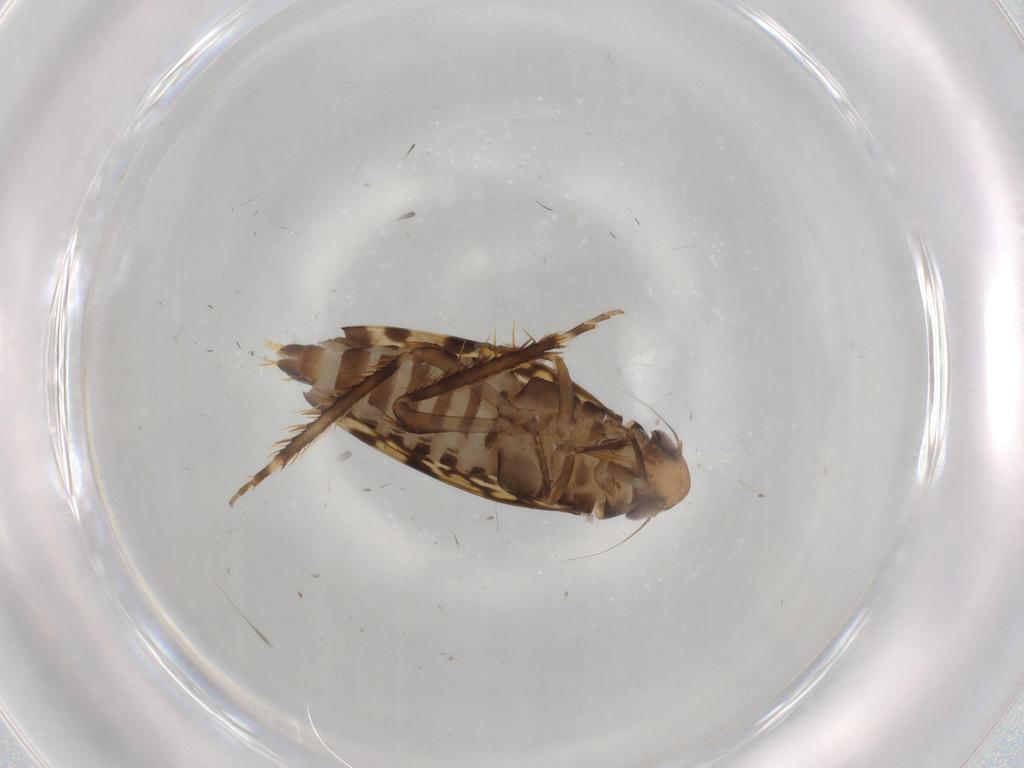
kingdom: Animalia
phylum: Arthropoda
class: Insecta
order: Hemiptera
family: Cicadellidae
